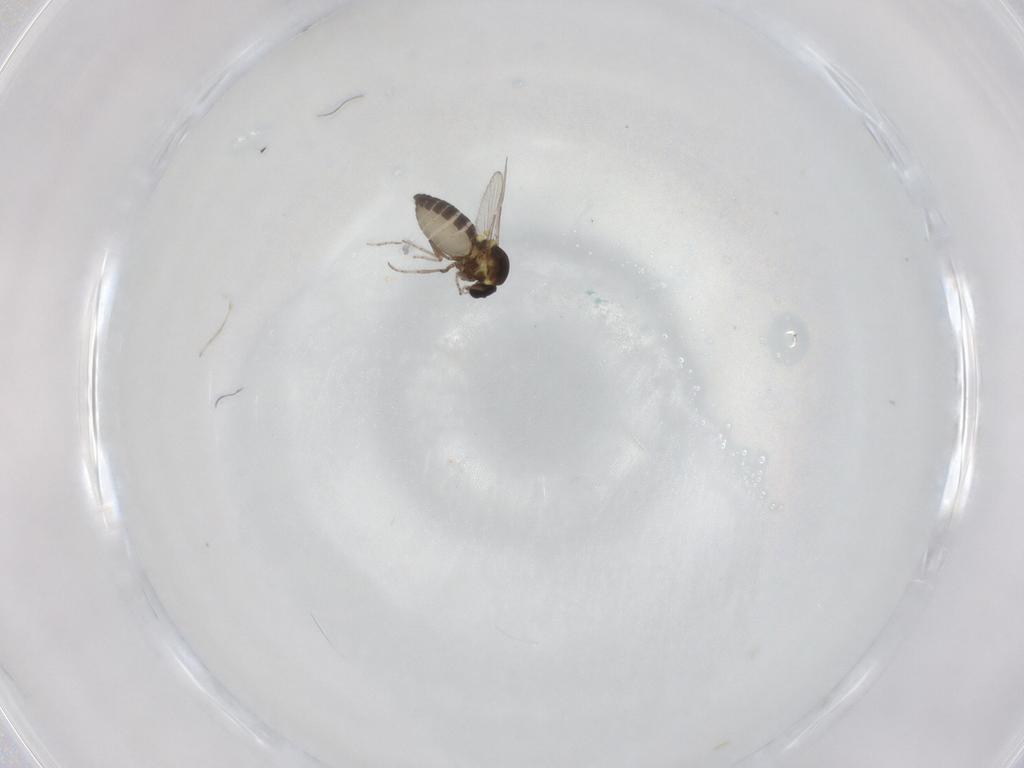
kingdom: Animalia
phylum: Arthropoda
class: Insecta
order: Diptera
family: Ceratopogonidae
